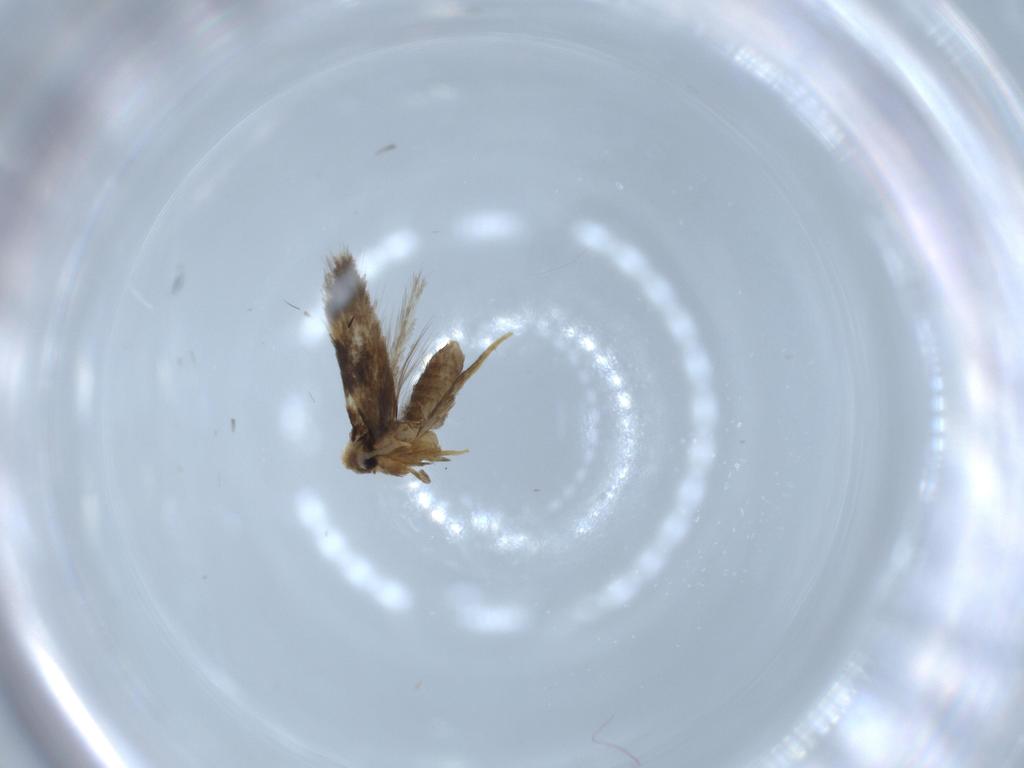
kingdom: Animalia
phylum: Arthropoda
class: Insecta
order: Lepidoptera
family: Nepticulidae
